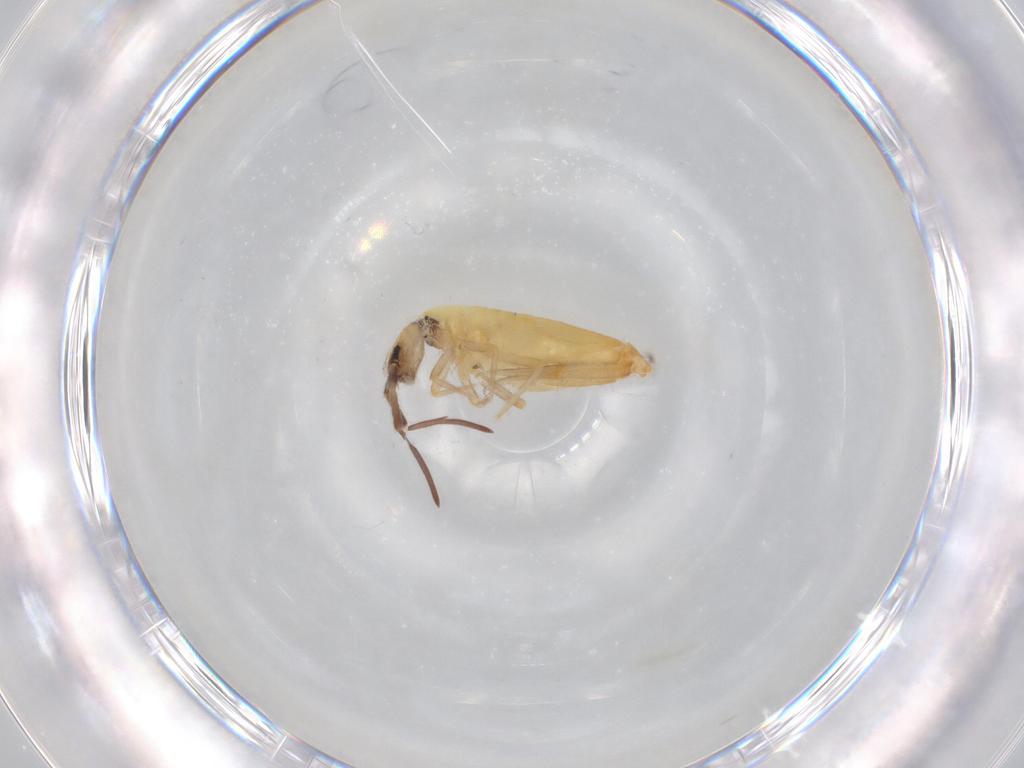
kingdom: Animalia
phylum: Arthropoda
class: Collembola
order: Entomobryomorpha
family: Entomobryidae
